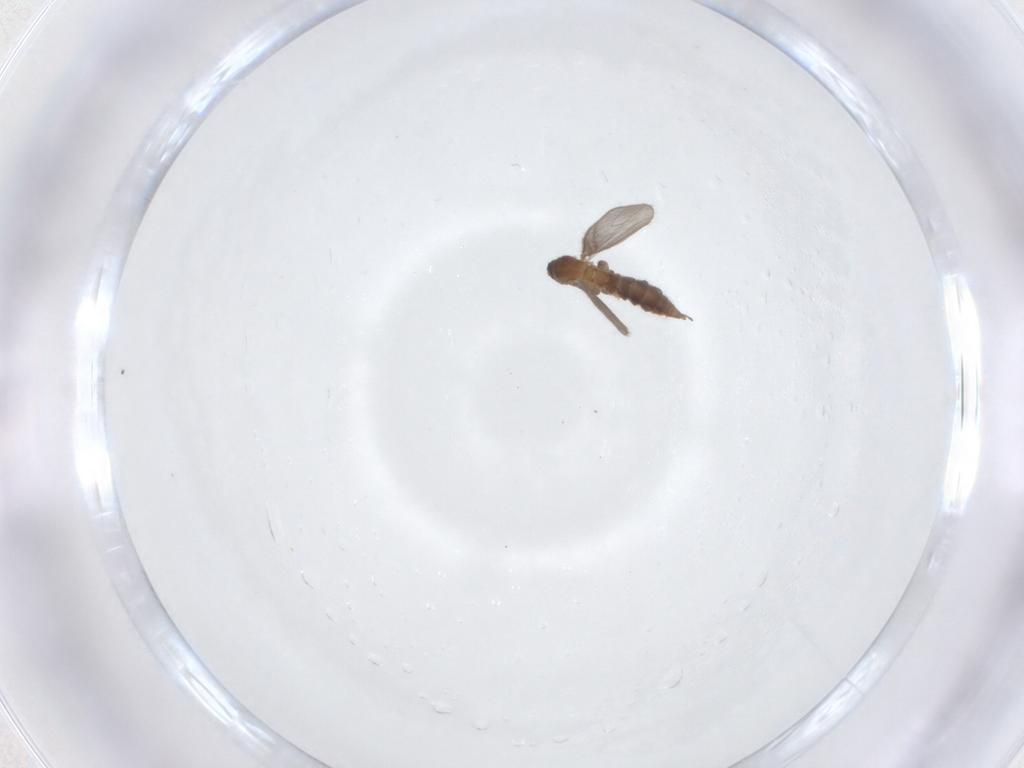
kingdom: Animalia
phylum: Arthropoda
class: Insecta
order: Diptera
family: Sciaridae
